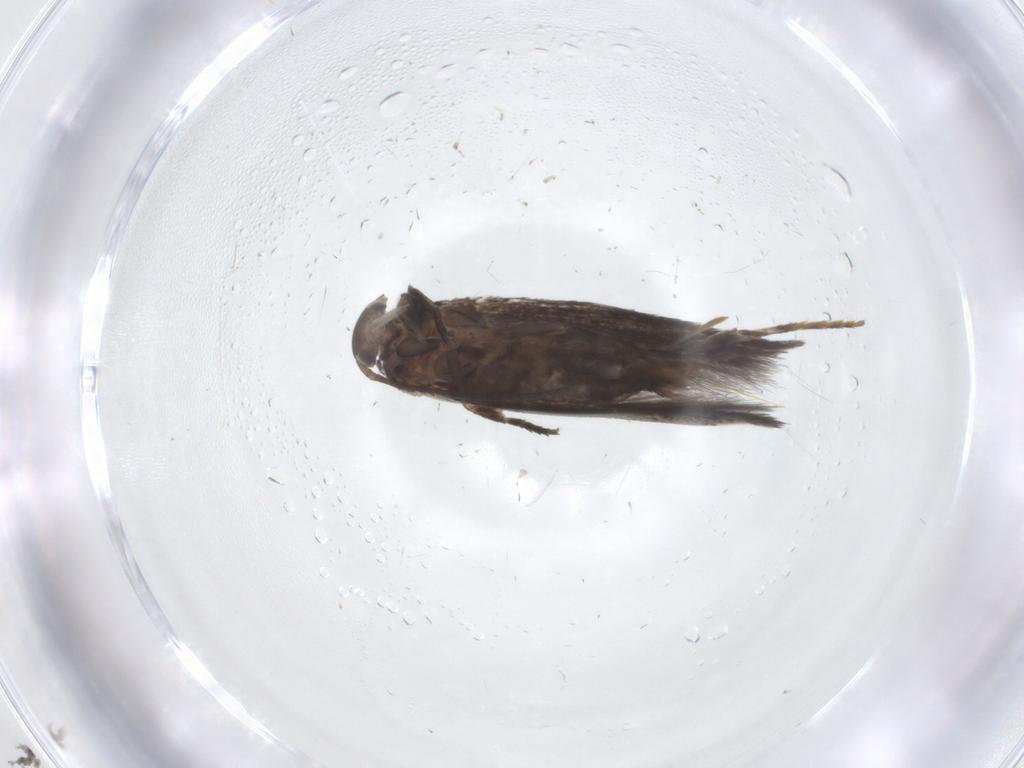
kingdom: Animalia
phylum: Arthropoda
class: Insecta
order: Lepidoptera
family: Elachistidae
